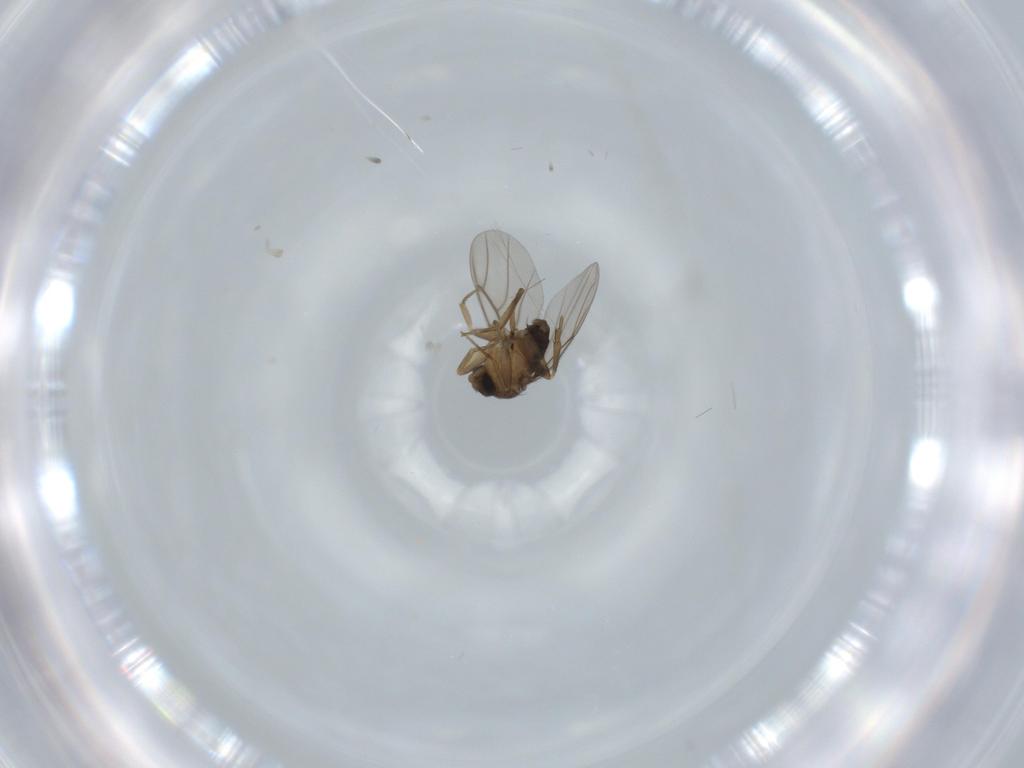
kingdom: Animalia
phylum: Arthropoda
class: Insecta
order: Diptera
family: Phoridae
